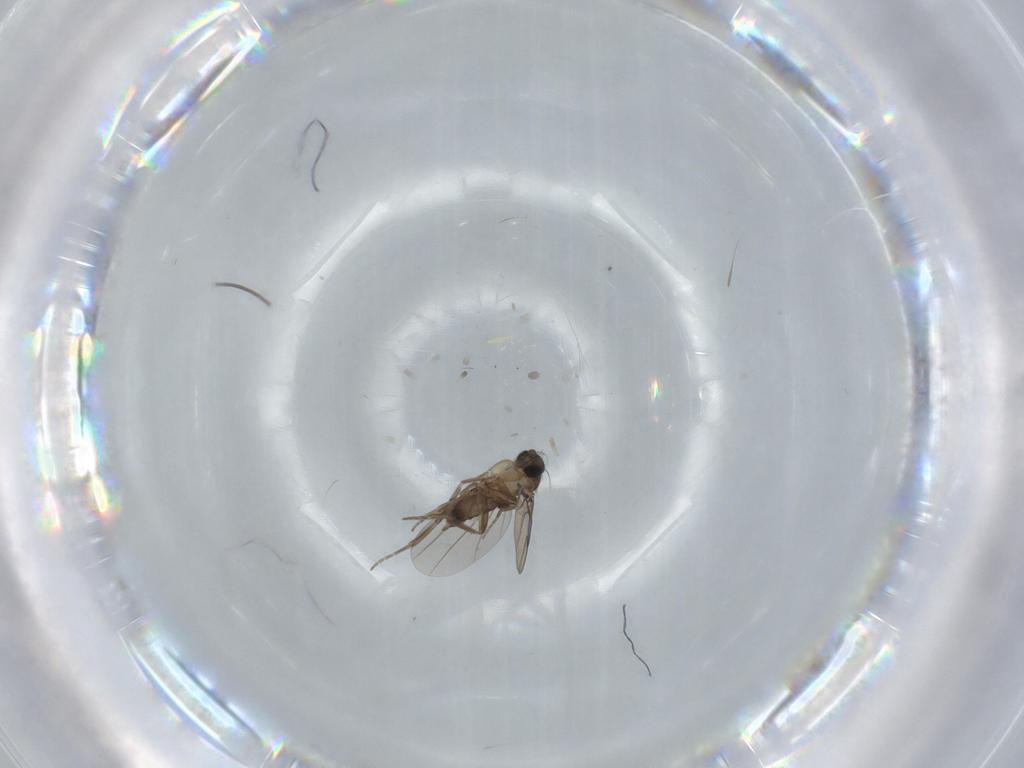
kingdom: Animalia
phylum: Arthropoda
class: Insecta
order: Diptera
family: Sciaridae
